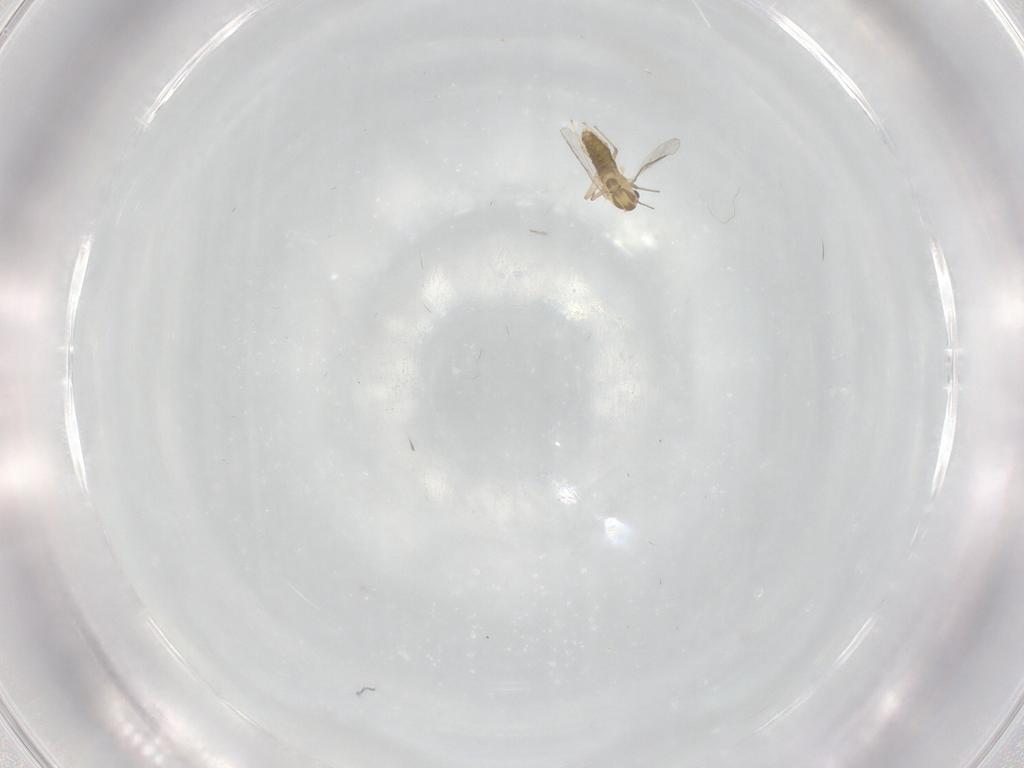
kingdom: Animalia
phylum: Arthropoda
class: Insecta
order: Diptera
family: Chironomidae
